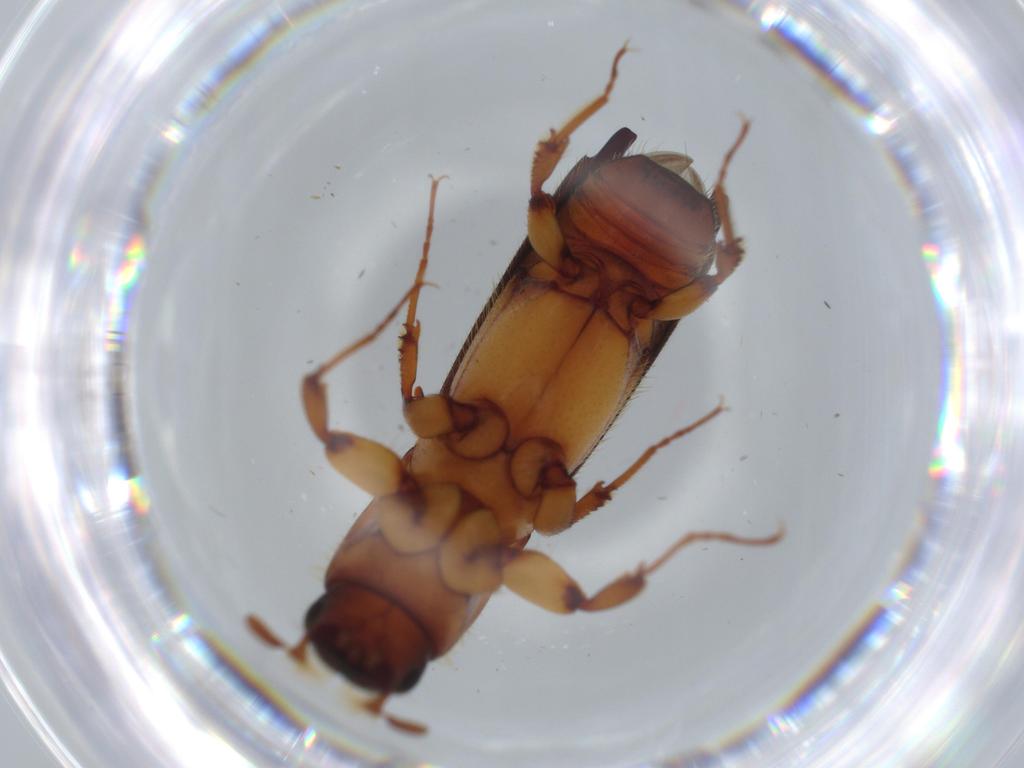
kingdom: Animalia
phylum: Arthropoda
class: Insecta
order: Coleoptera
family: Curculionidae
